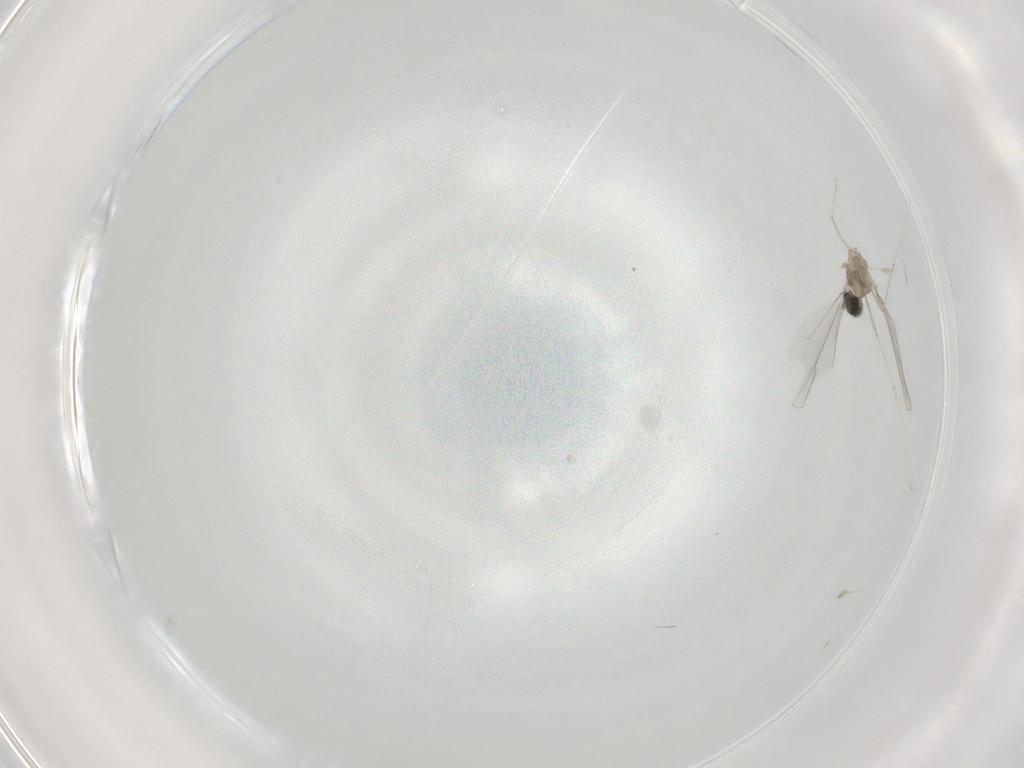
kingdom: Animalia
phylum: Arthropoda
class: Insecta
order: Diptera
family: Cecidomyiidae
